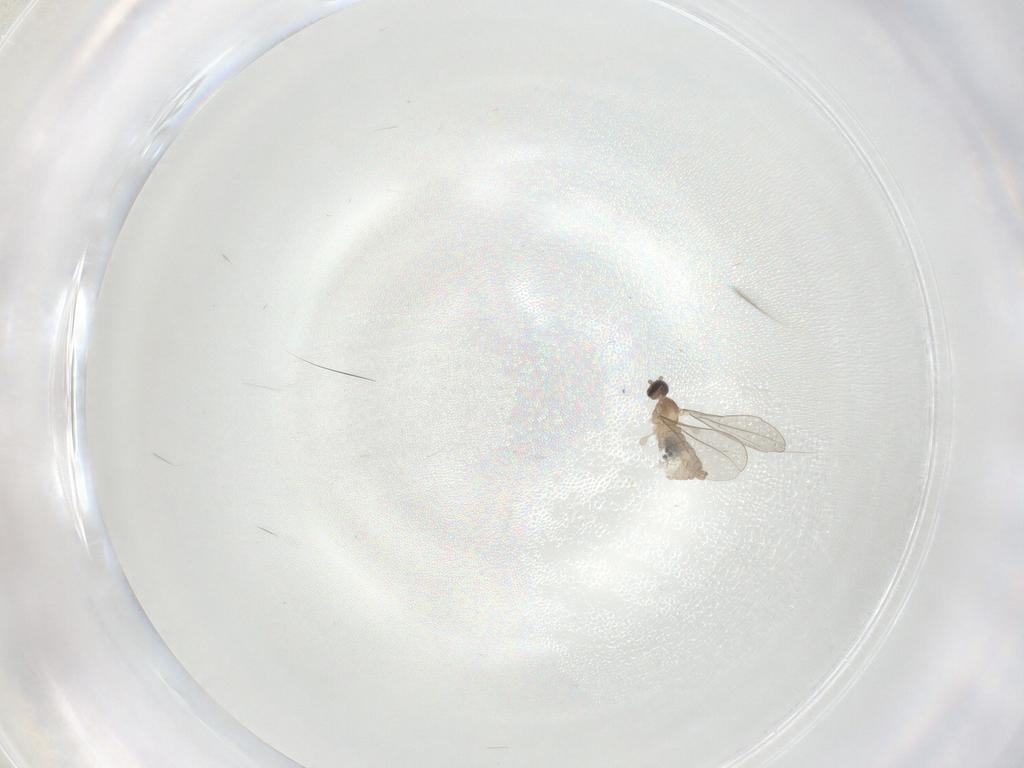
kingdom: Animalia
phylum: Arthropoda
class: Insecta
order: Diptera
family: Cecidomyiidae
